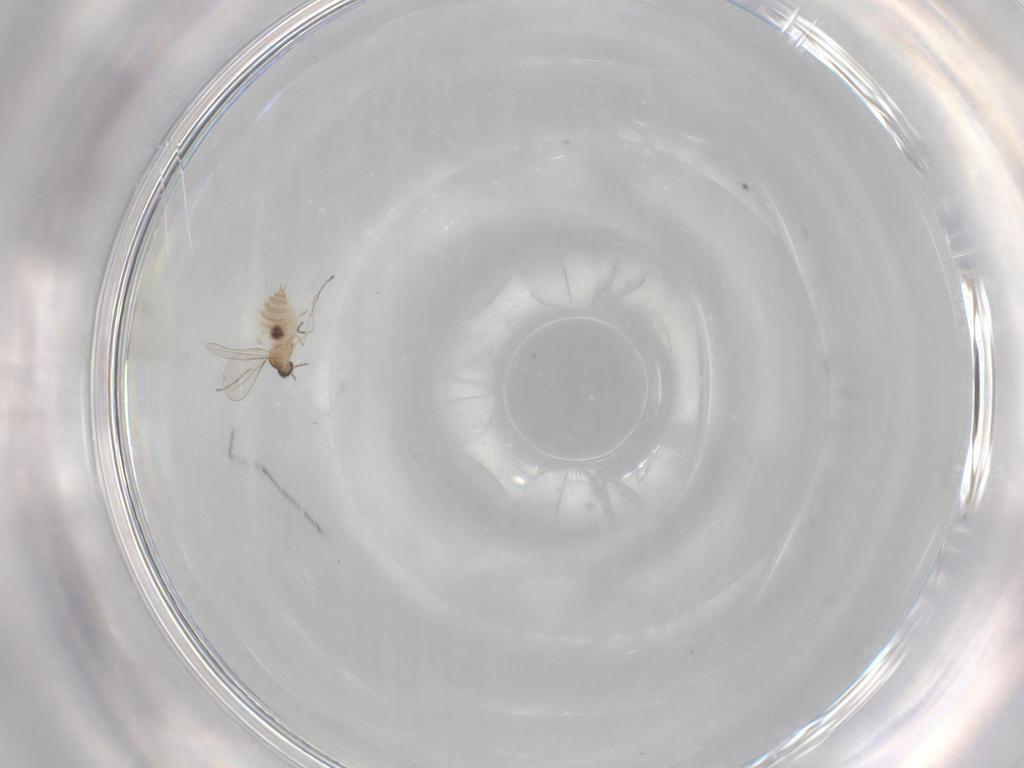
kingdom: Animalia
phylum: Arthropoda
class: Insecta
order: Diptera
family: Cecidomyiidae
